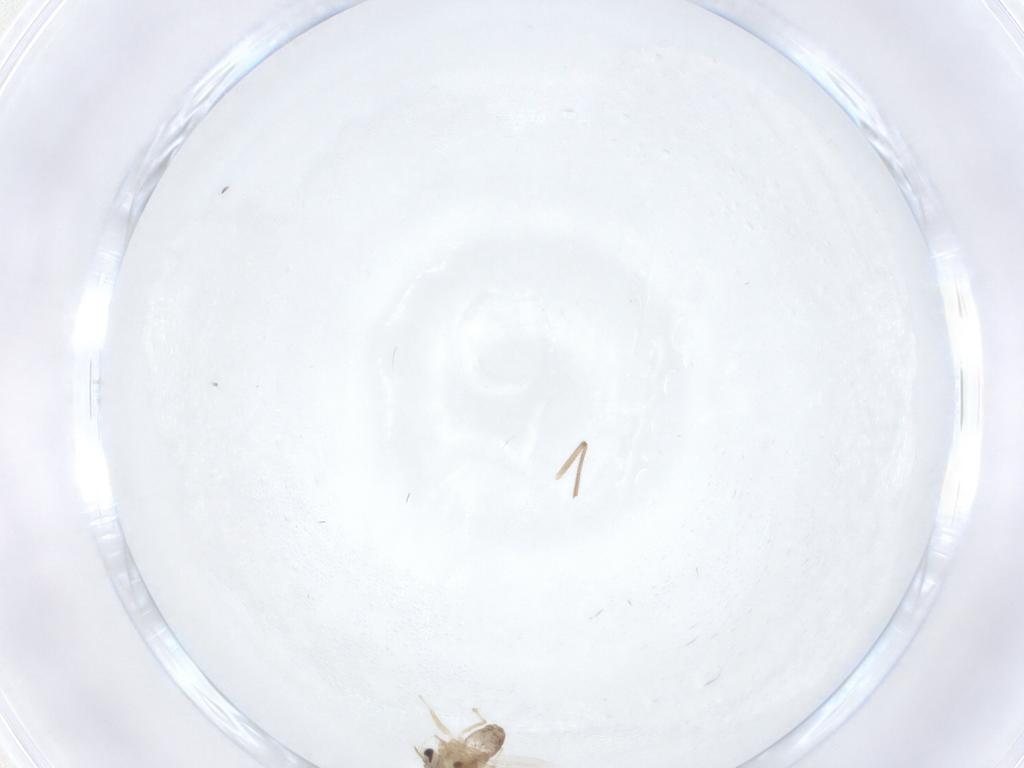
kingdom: Animalia
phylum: Arthropoda
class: Insecta
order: Diptera
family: Chironomidae
